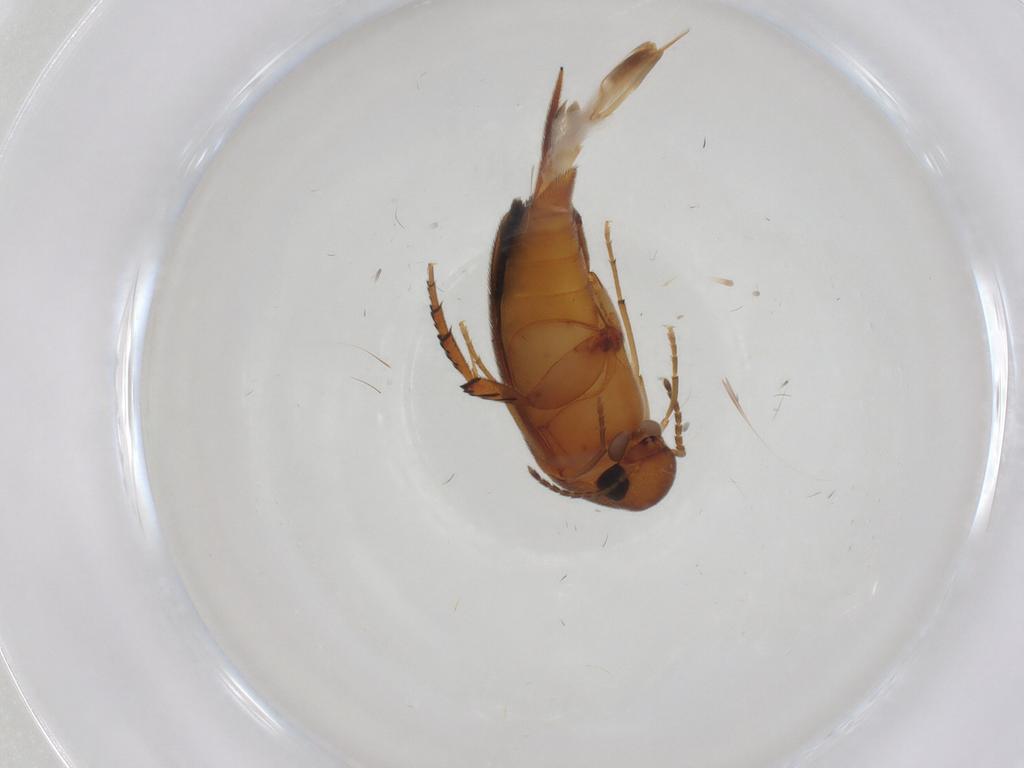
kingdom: Animalia
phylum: Arthropoda
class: Insecta
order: Coleoptera
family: Mordellidae
